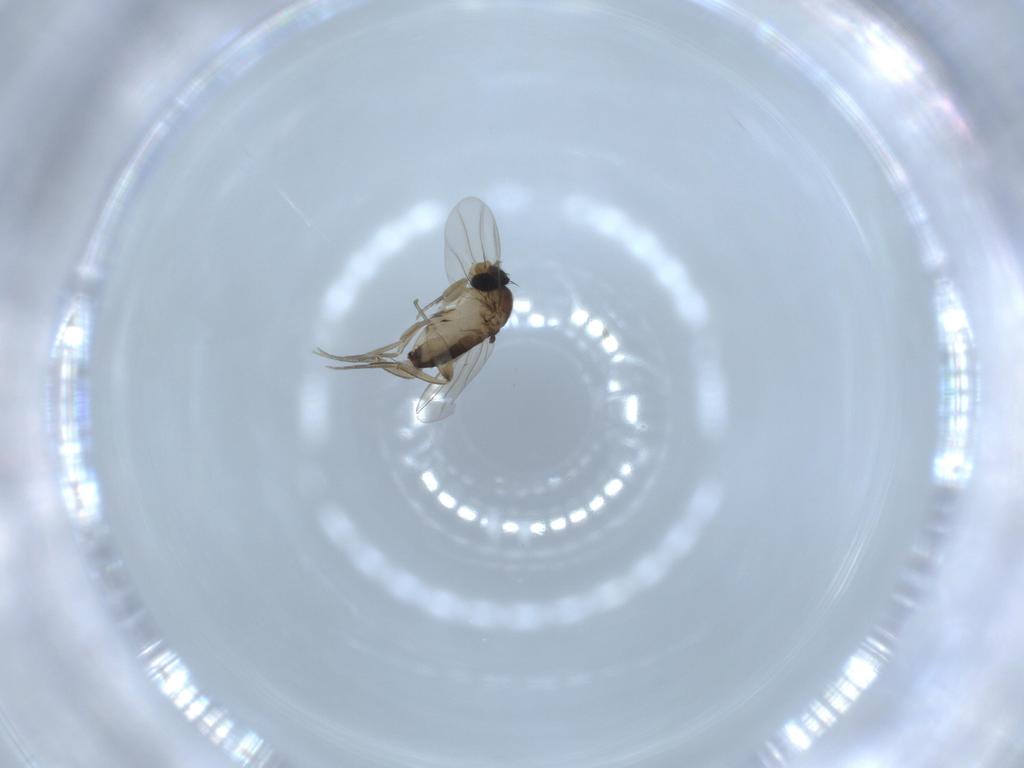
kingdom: Animalia
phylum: Arthropoda
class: Insecta
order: Diptera
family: Phoridae
